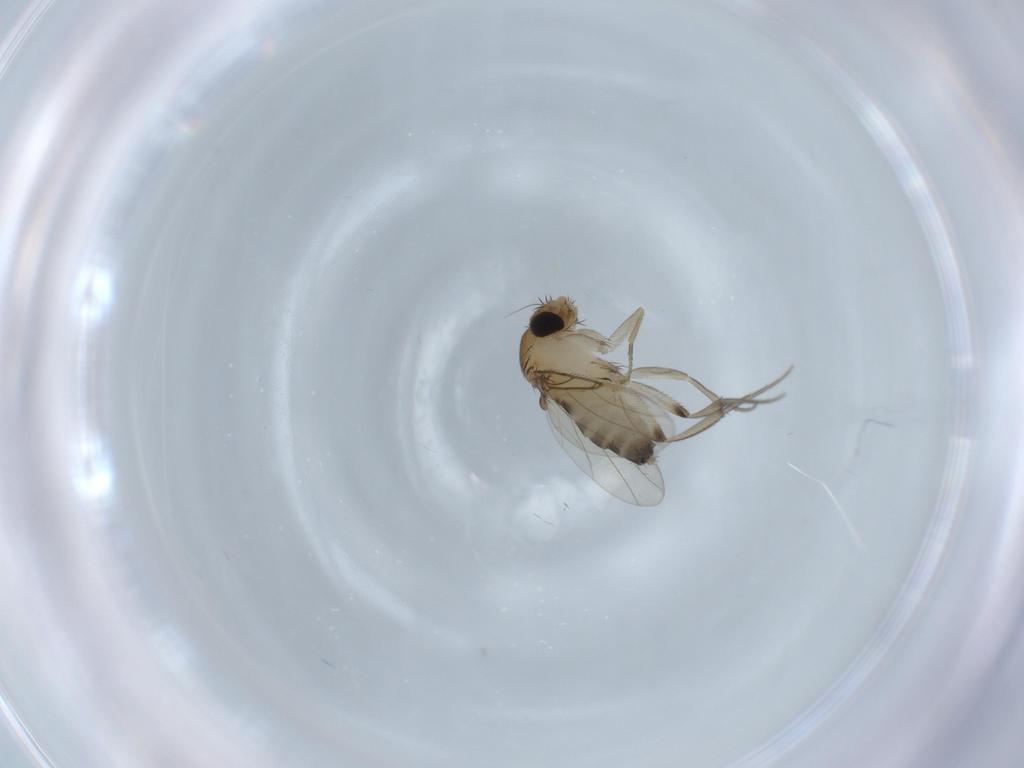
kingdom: Animalia
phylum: Arthropoda
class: Insecta
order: Diptera
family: Phoridae
